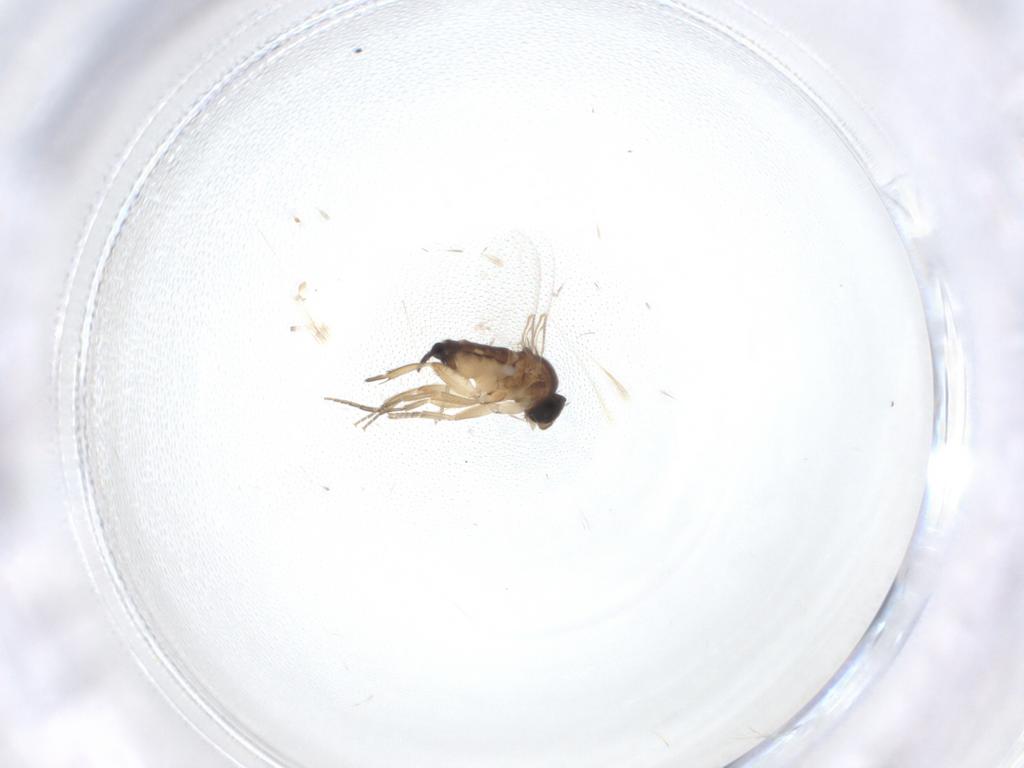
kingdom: Animalia
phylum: Arthropoda
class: Insecta
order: Diptera
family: Phoridae
